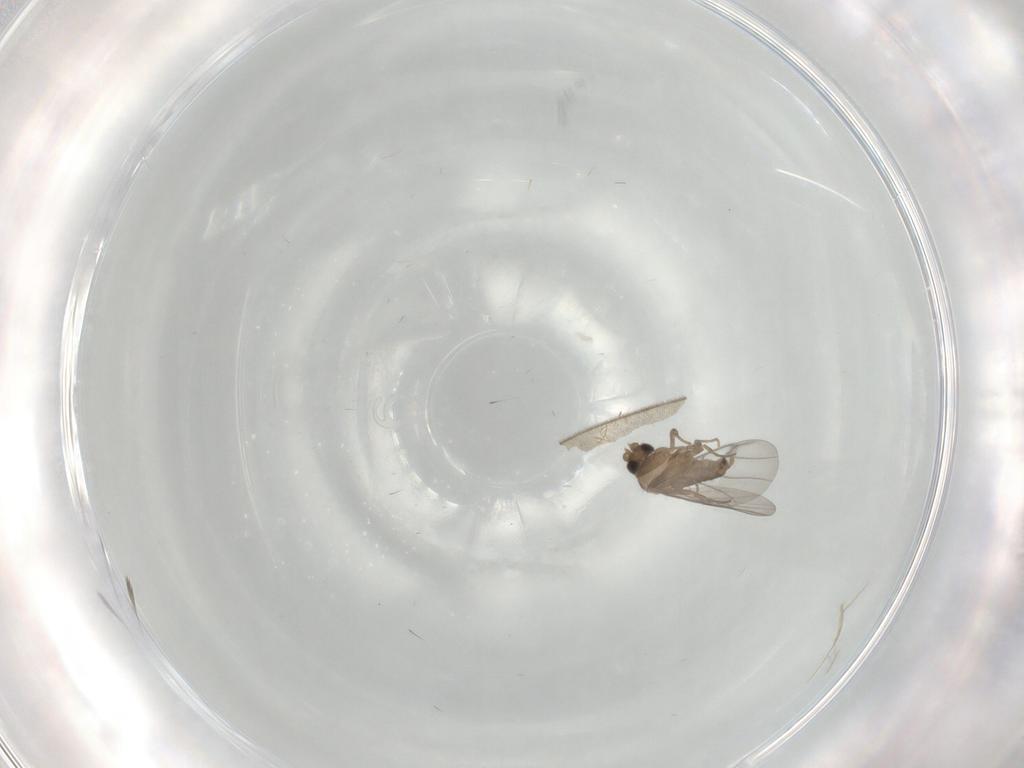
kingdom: Animalia
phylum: Arthropoda
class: Insecta
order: Diptera
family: Tabanidae
